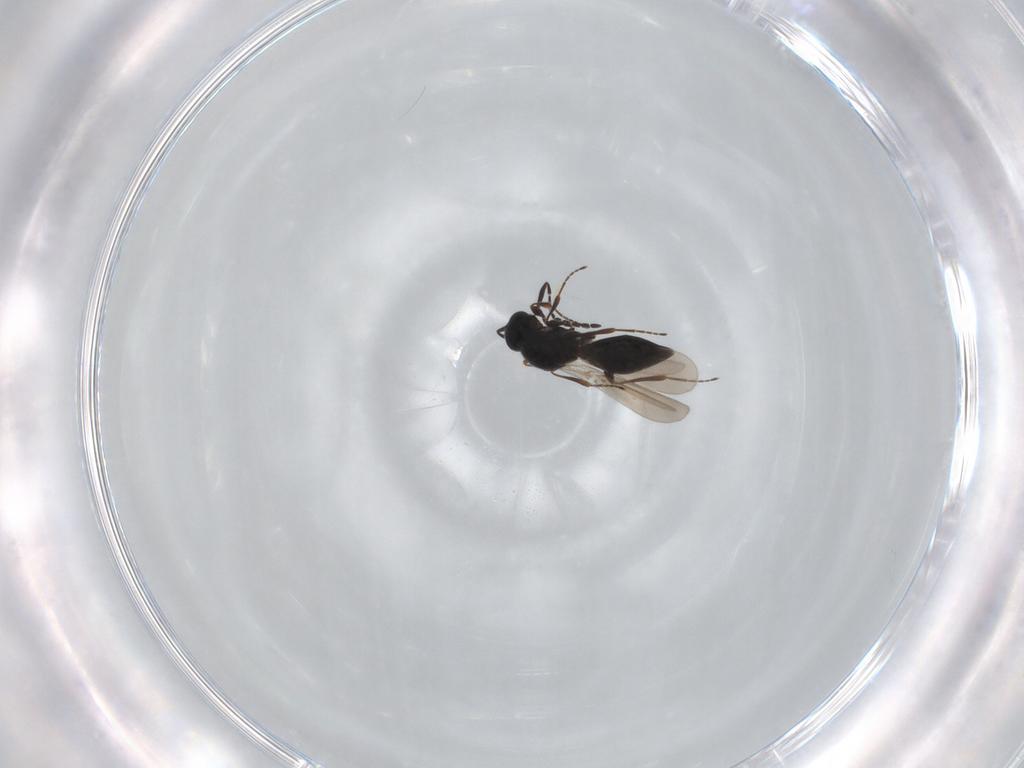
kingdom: Animalia
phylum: Arthropoda
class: Insecta
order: Hymenoptera
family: Platygastridae
